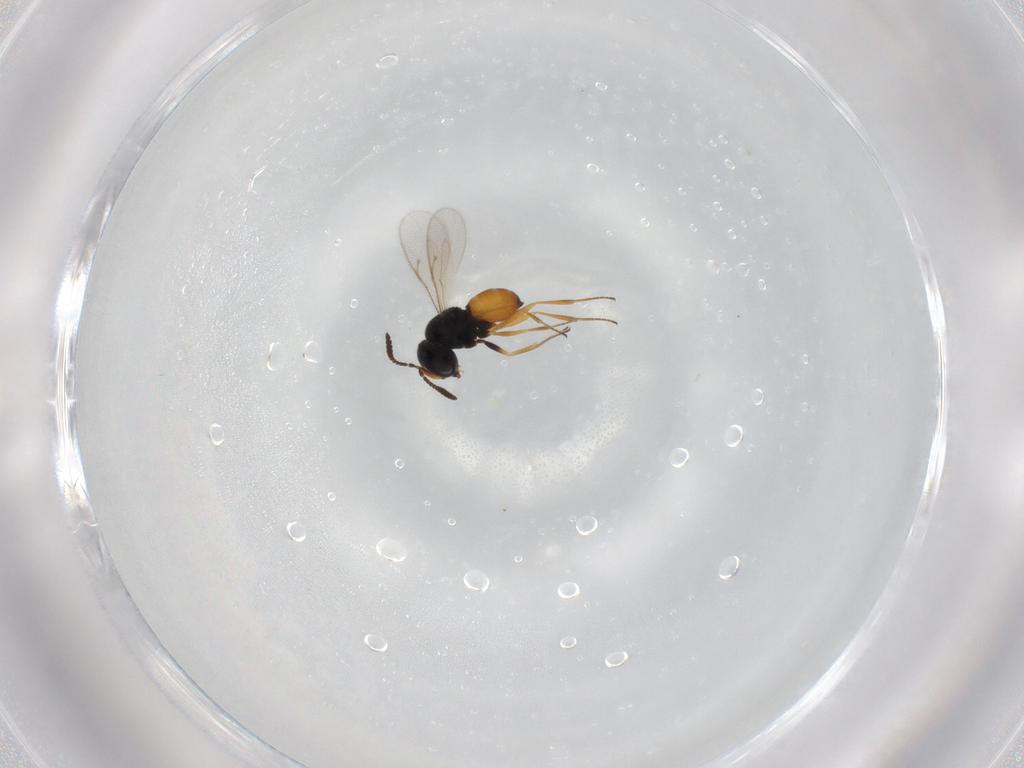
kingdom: Animalia
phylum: Arthropoda
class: Insecta
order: Hymenoptera
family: Scelionidae
